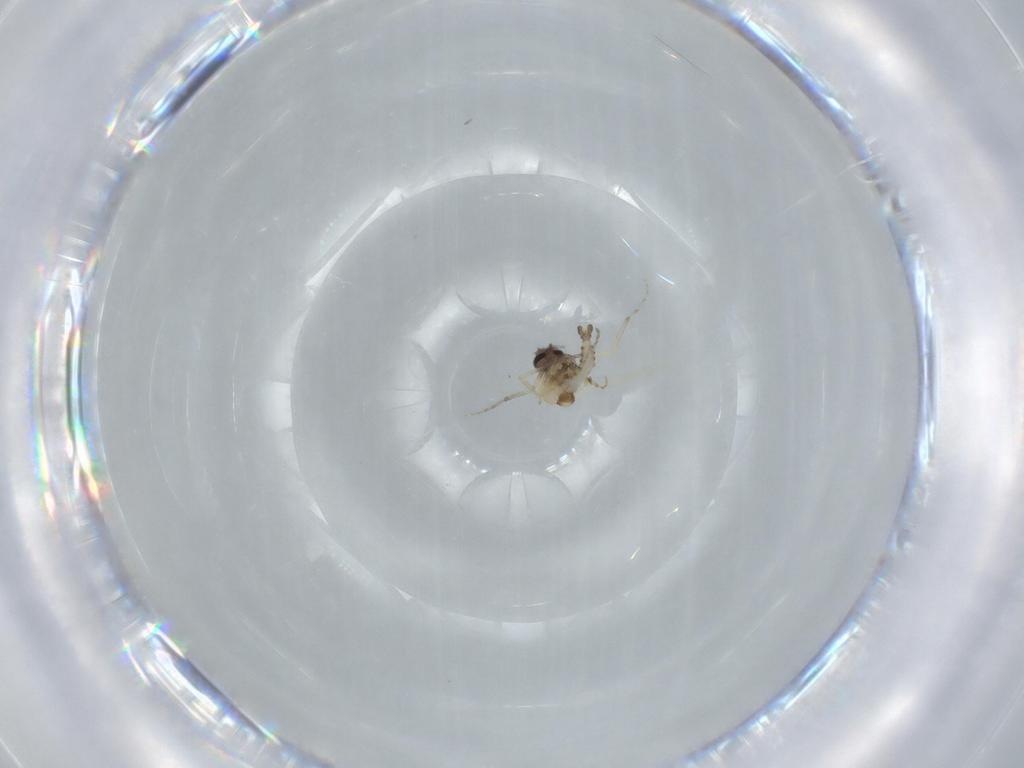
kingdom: Animalia
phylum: Arthropoda
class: Insecta
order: Diptera
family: Ceratopogonidae
